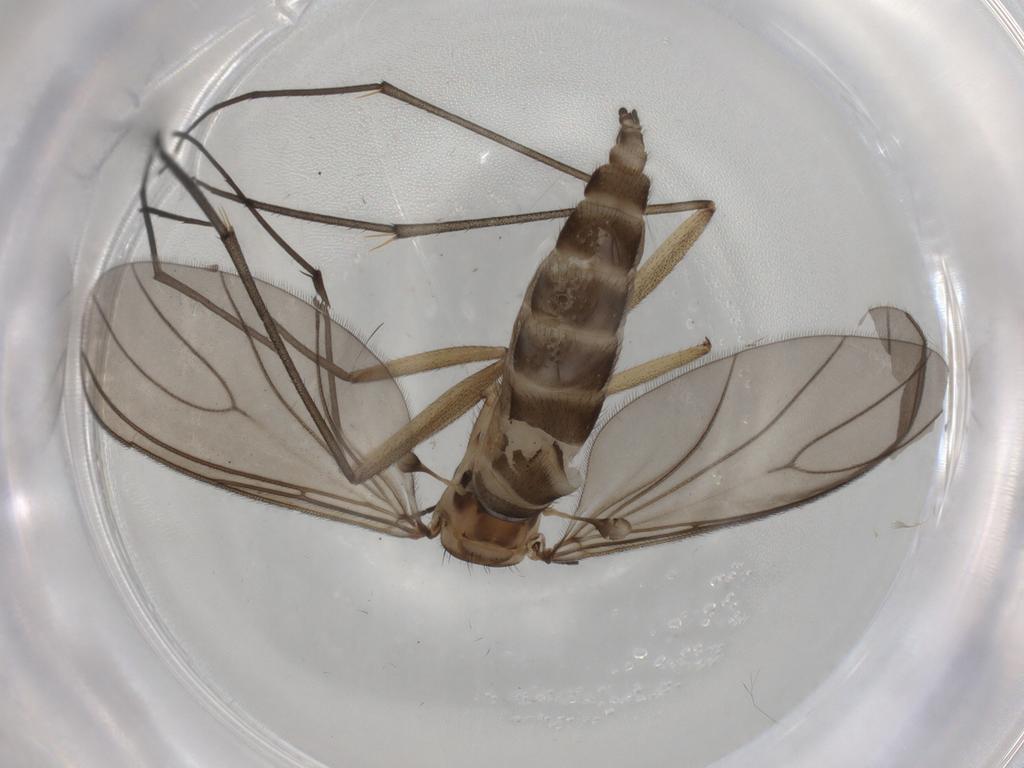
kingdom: Animalia
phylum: Arthropoda
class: Insecta
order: Diptera
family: Sciaridae
